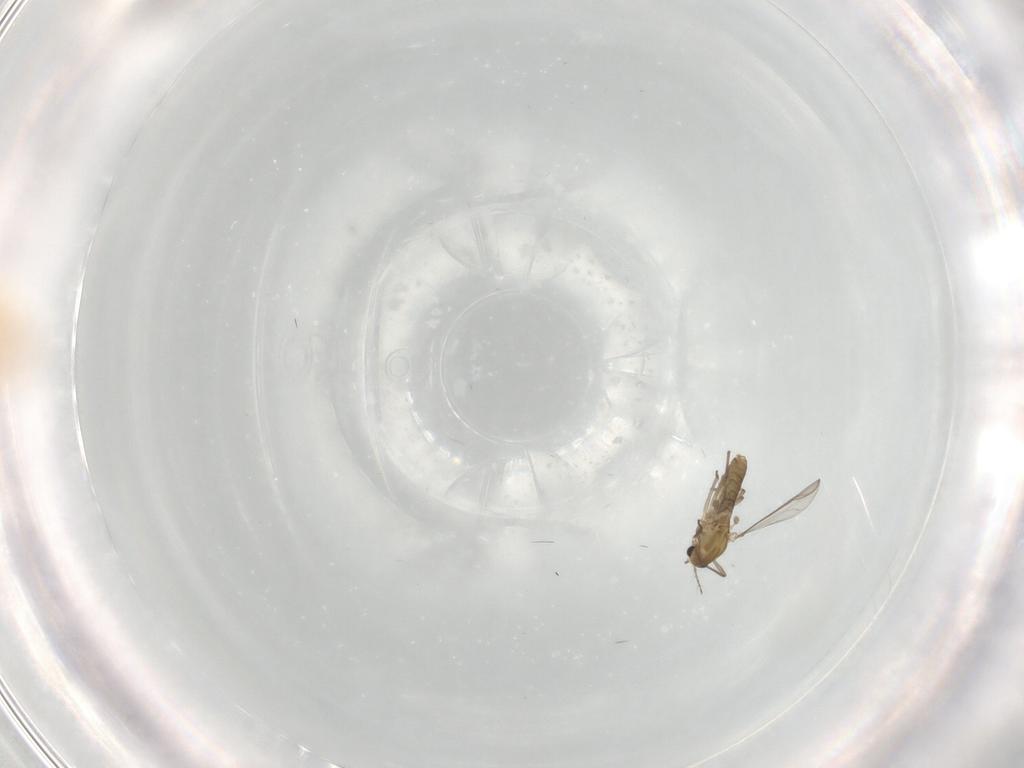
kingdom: Animalia
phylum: Arthropoda
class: Insecta
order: Diptera
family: Chironomidae
